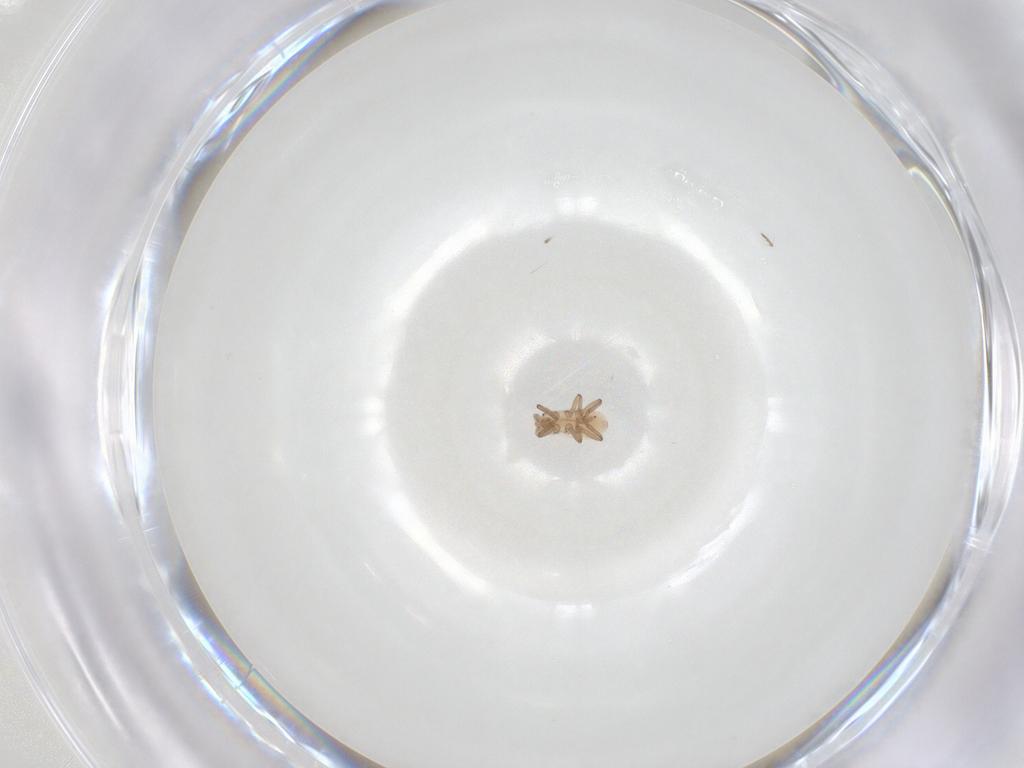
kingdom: Animalia
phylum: Arthropoda
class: Insecta
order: Hemiptera
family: Aphididae
